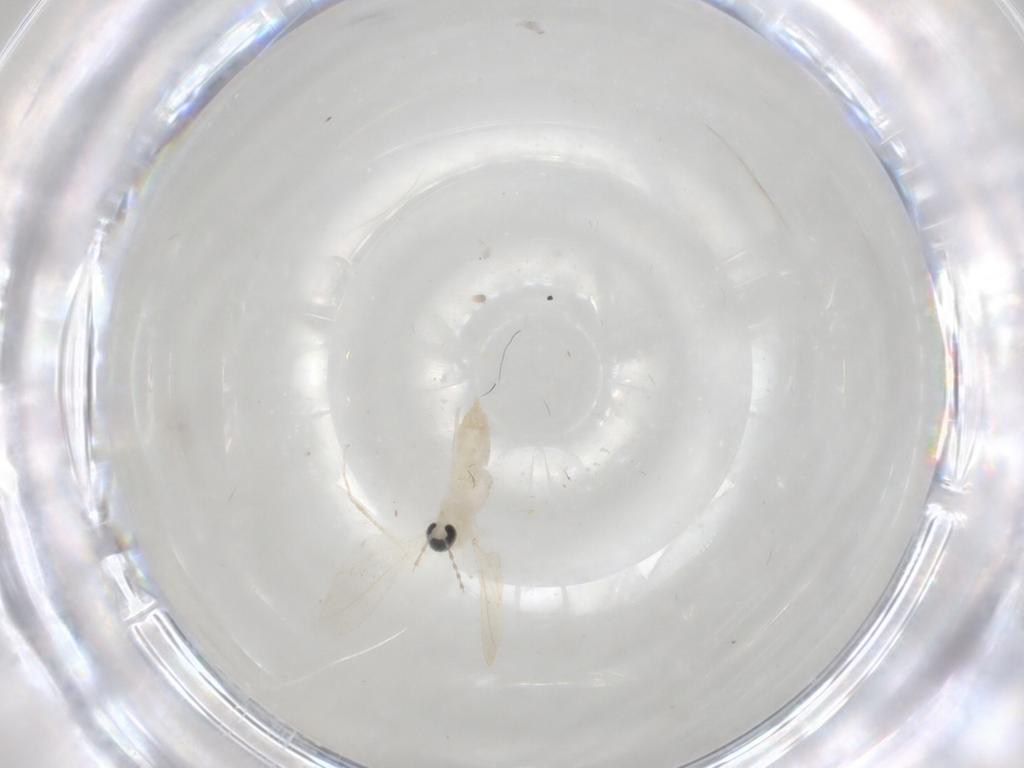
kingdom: Animalia
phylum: Arthropoda
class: Insecta
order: Diptera
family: Cecidomyiidae
